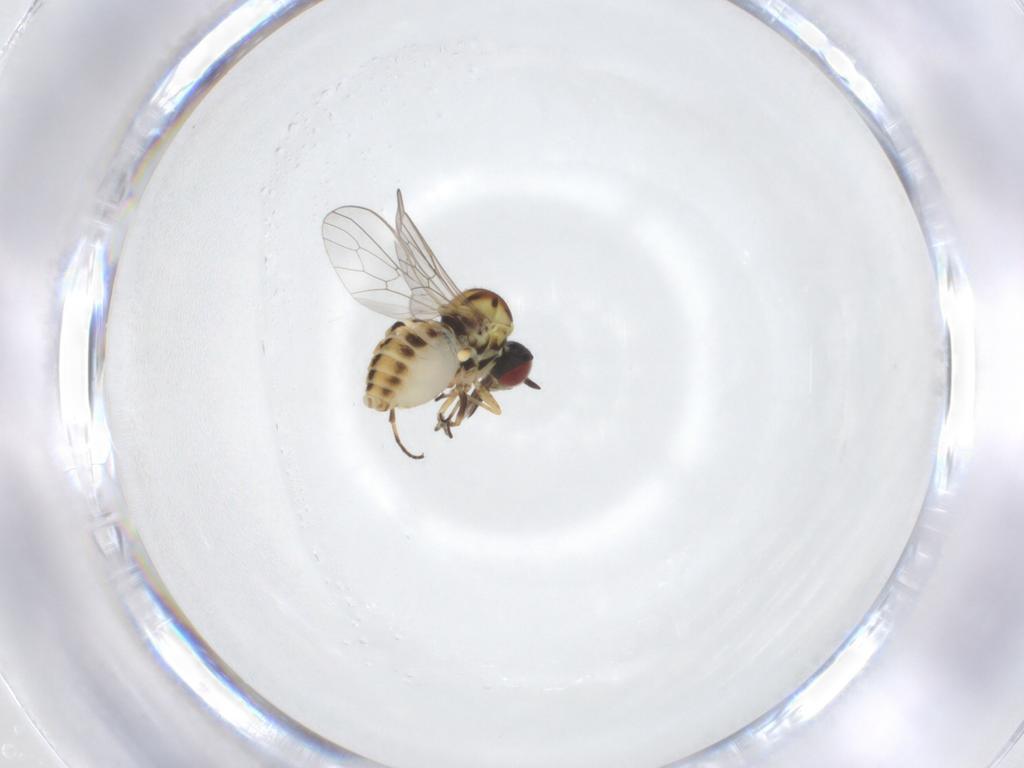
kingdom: Animalia
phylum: Arthropoda
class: Insecta
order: Diptera
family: Bombyliidae
